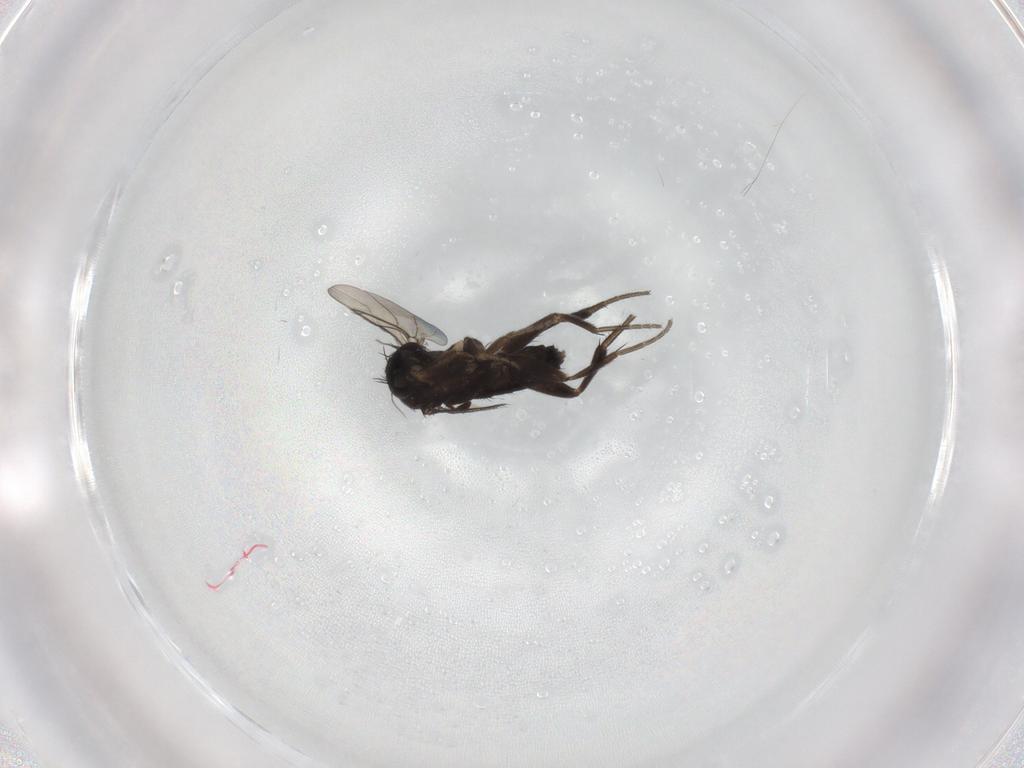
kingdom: Animalia
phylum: Arthropoda
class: Insecta
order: Diptera
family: Phoridae
